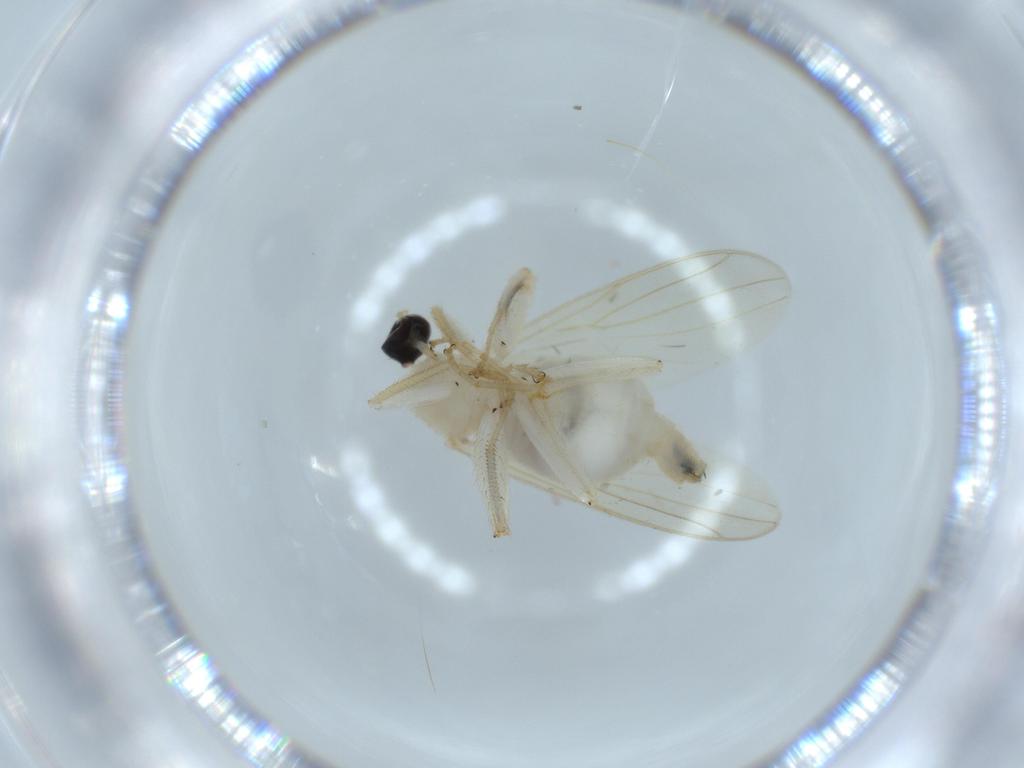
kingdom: Animalia
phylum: Arthropoda
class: Insecta
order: Diptera
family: Hybotidae
